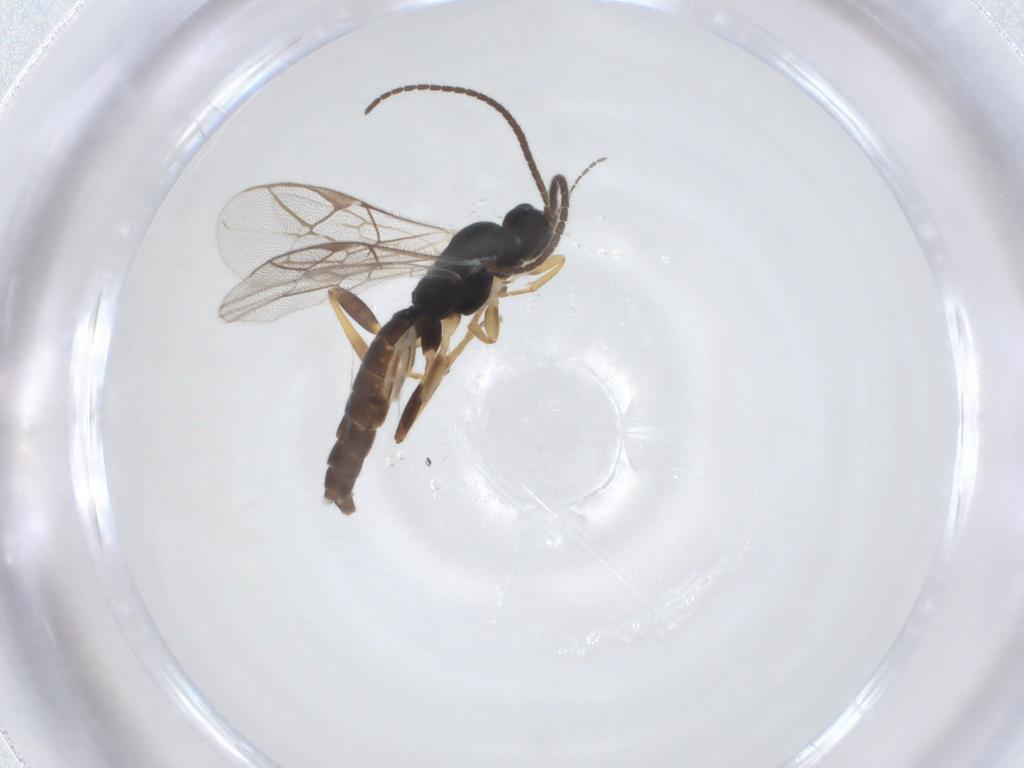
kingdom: Animalia
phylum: Arthropoda
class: Insecta
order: Hymenoptera
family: Ichneumonidae
